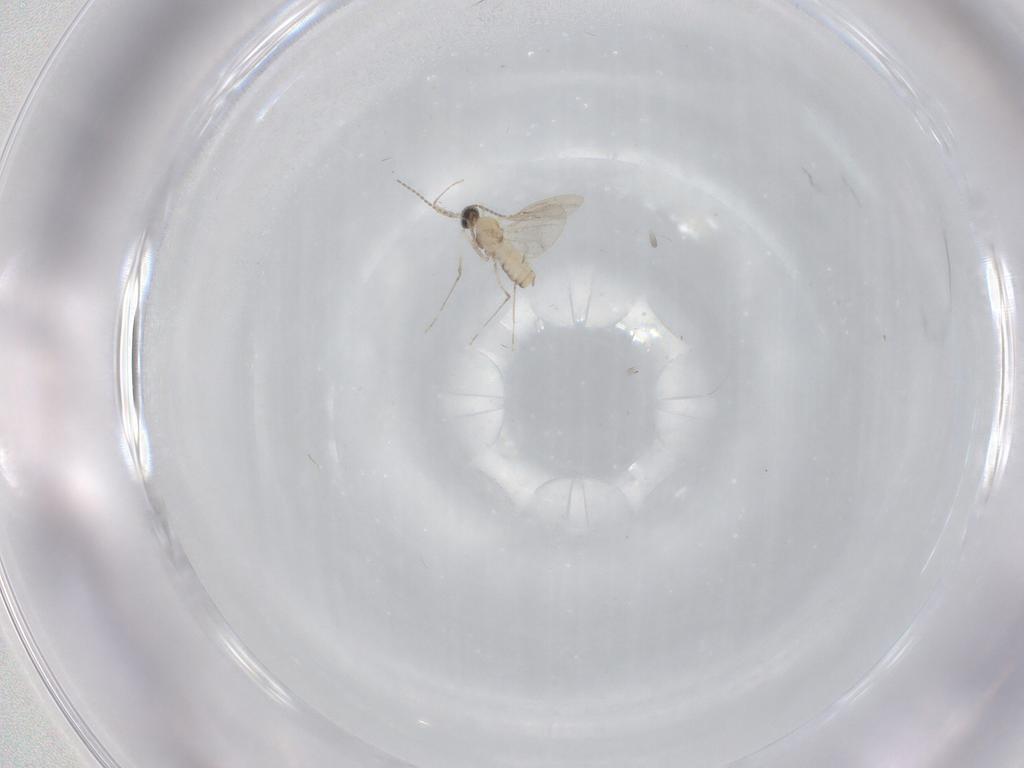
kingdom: Animalia
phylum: Arthropoda
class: Insecta
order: Diptera
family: Cecidomyiidae
